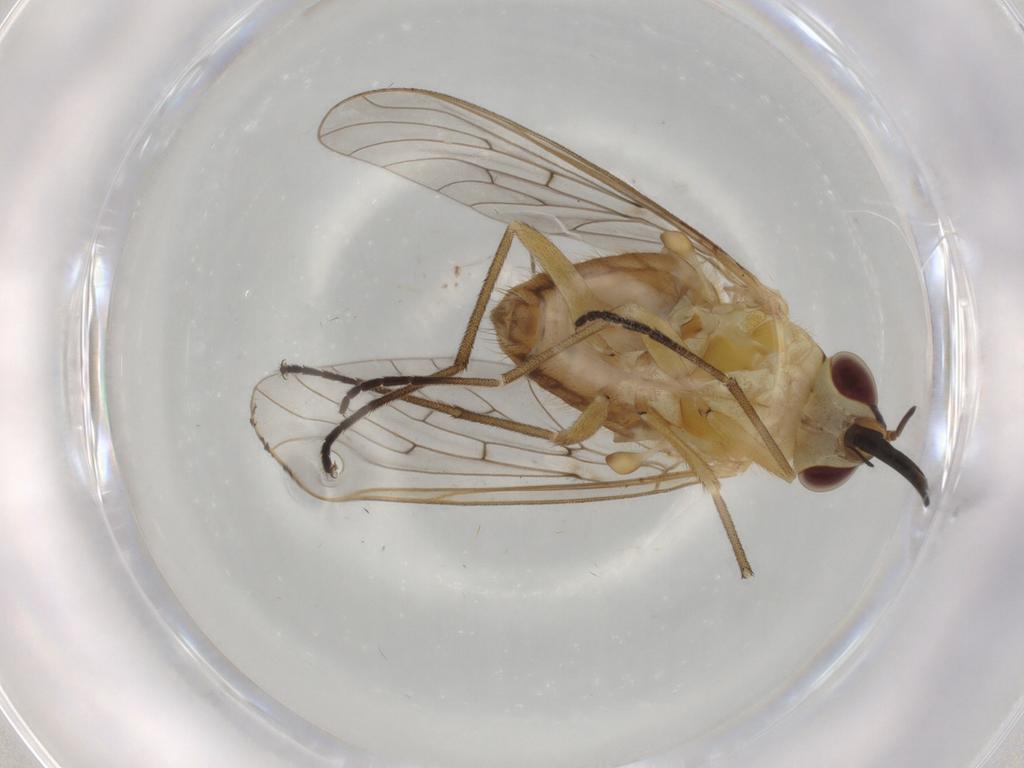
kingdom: Animalia
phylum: Arthropoda
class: Insecta
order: Diptera
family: Bombyliidae
